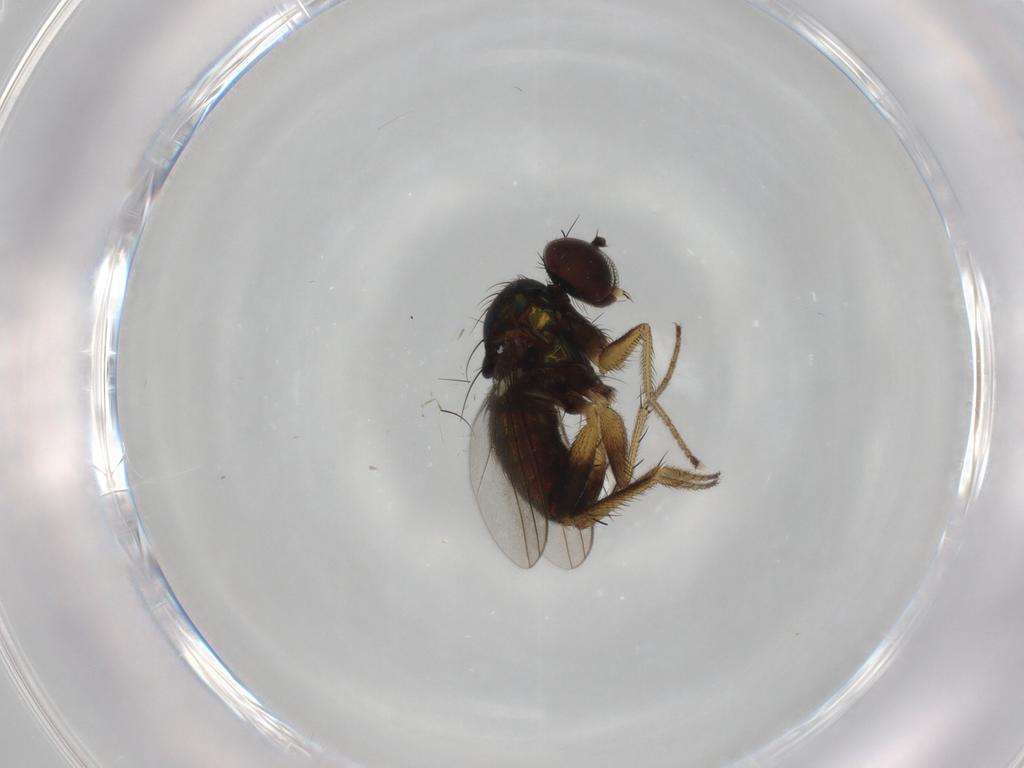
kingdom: Animalia
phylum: Arthropoda
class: Insecta
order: Diptera
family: Dolichopodidae
